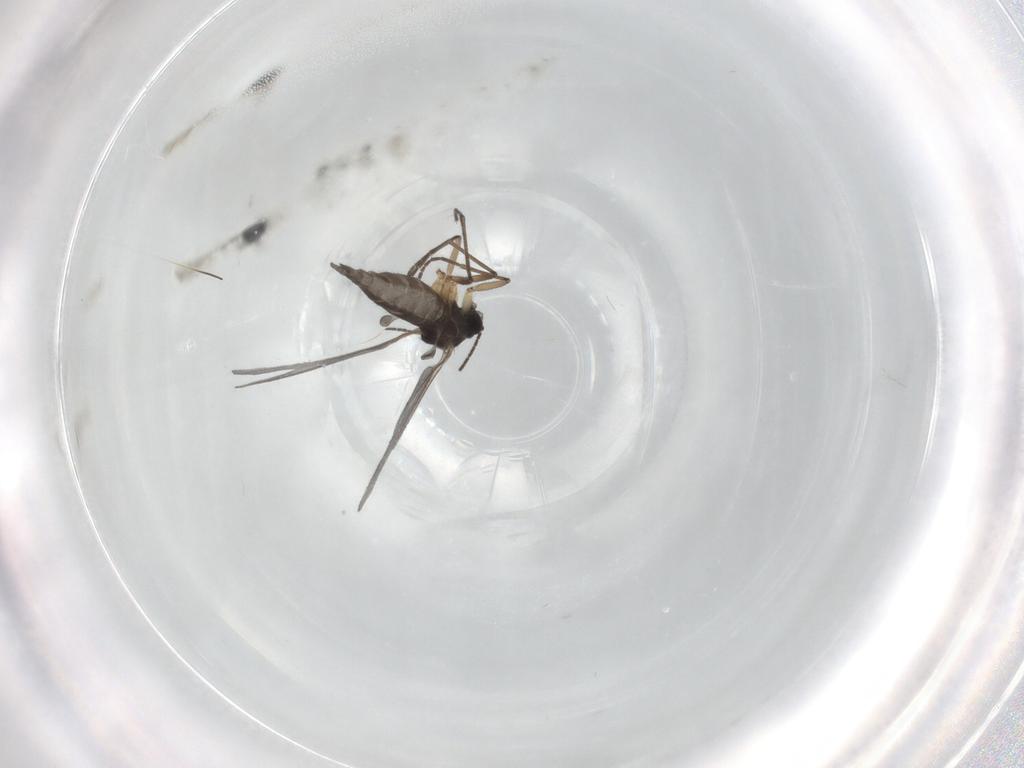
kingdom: Animalia
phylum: Arthropoda
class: Insecta
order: Diptera
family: Sciaridae
